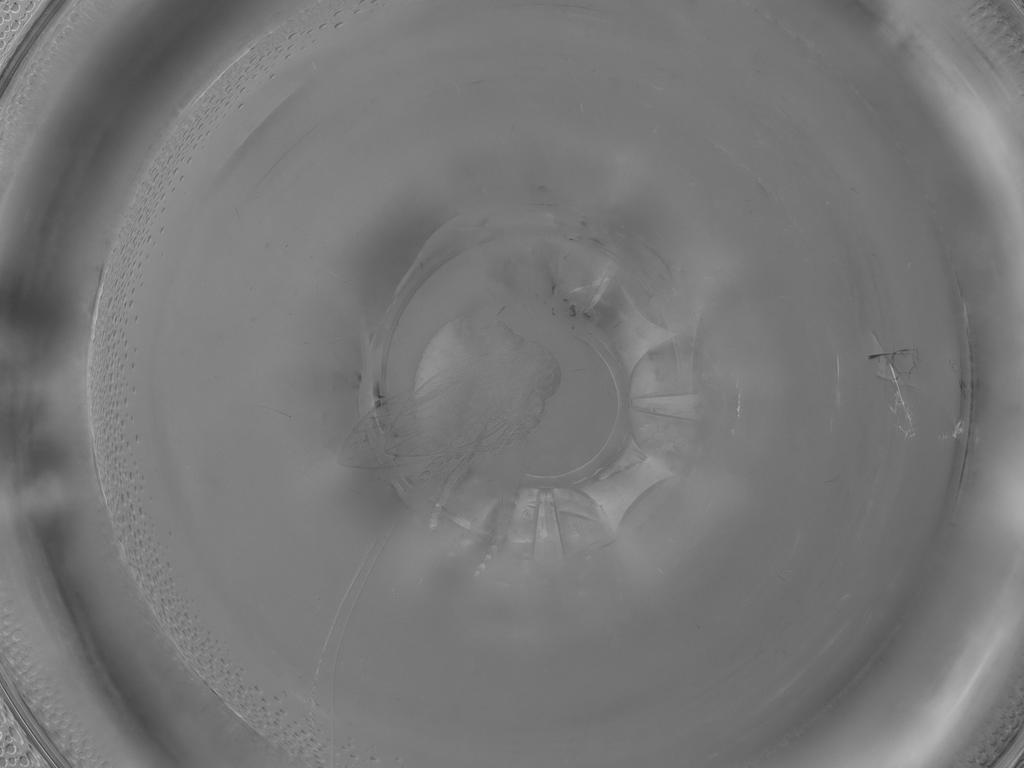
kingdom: Animalia
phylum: Arthropoda
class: Insecta
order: Diptera
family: Psychodidae
